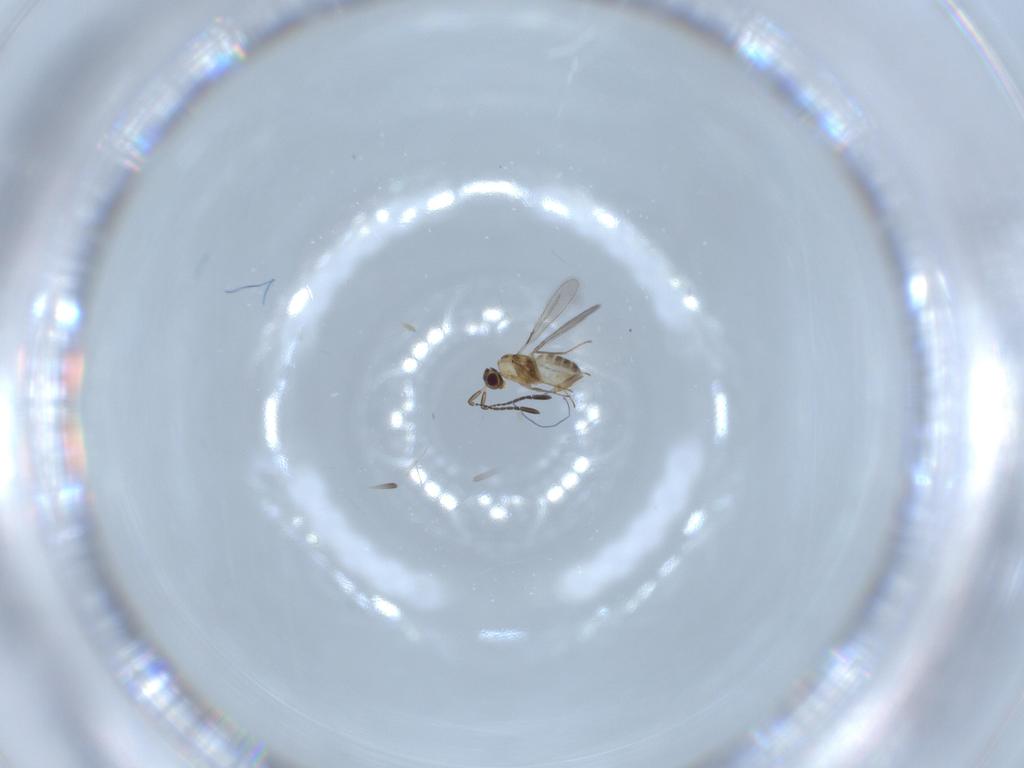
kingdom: Animalia
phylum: Arthropoda
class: Insecta
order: Hymenoptera
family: Mymaridae
